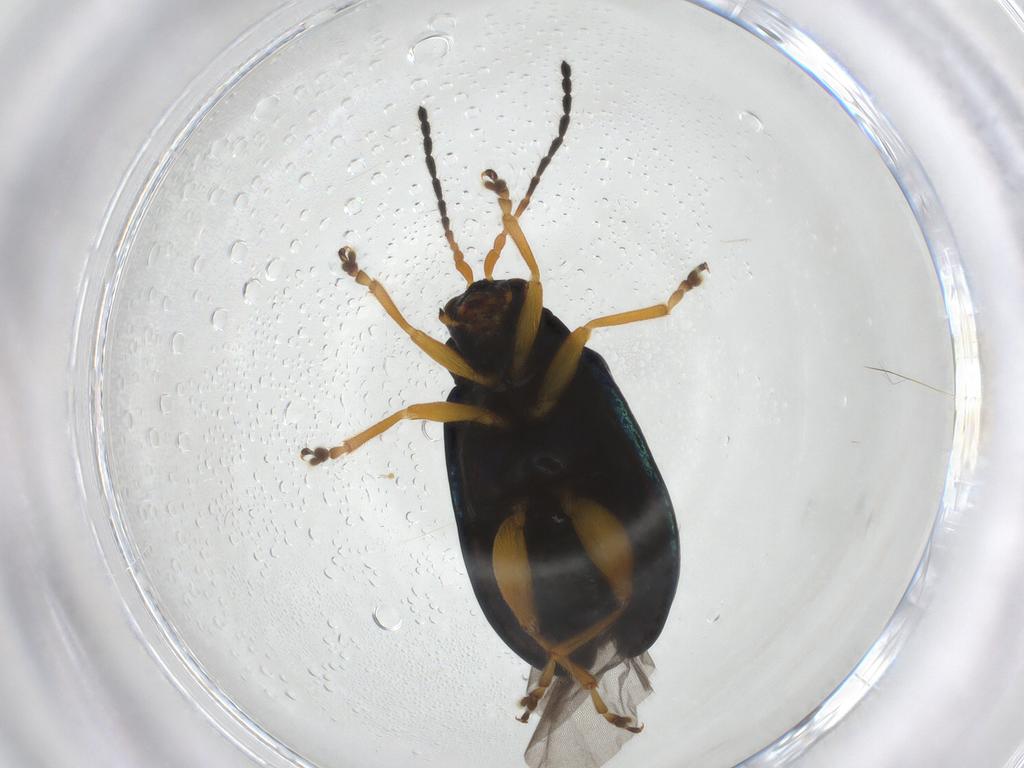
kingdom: Animalia
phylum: Arthropoda
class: Insecta
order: Coleoptera
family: Chrysomelidae
